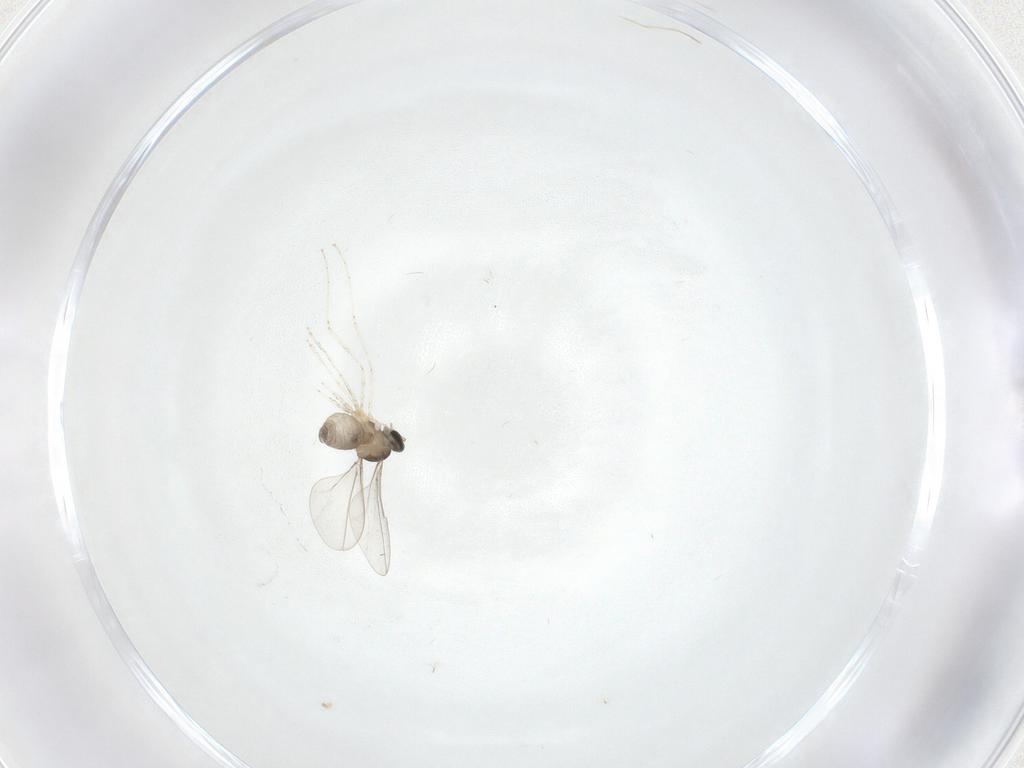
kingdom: Animalia
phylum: Arthropoda
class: Insecta
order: Diptera
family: Cecidomyiidae
